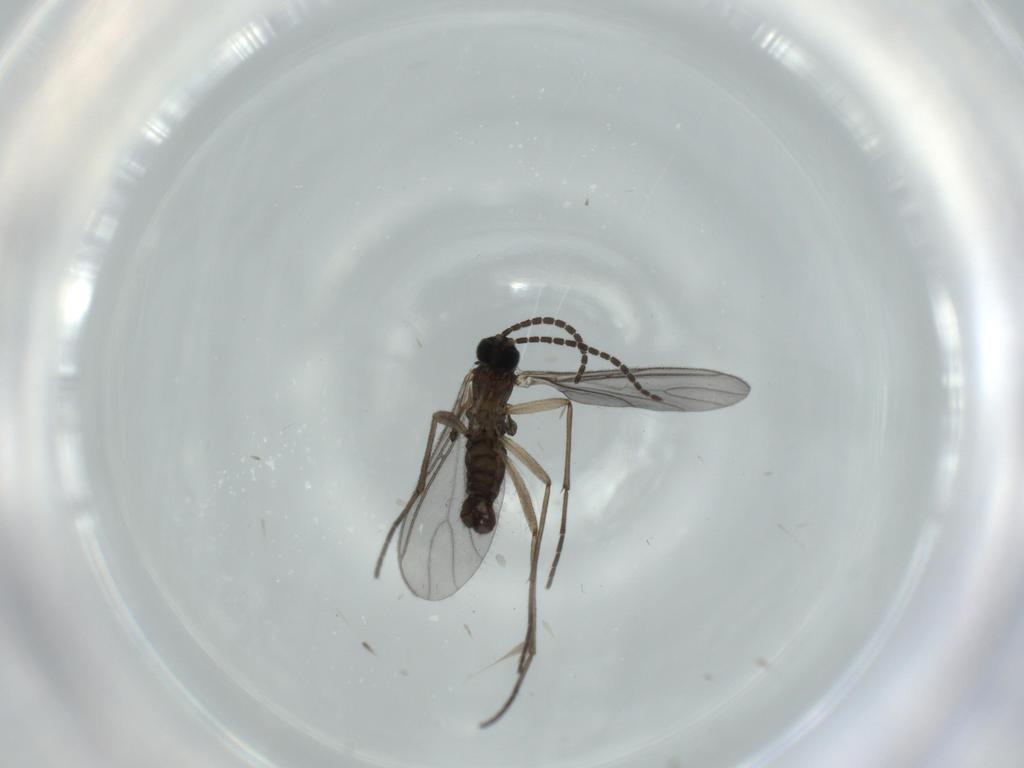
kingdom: Animalia
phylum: Arthropoda
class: Insecta
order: Diptera
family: Sciaridae
